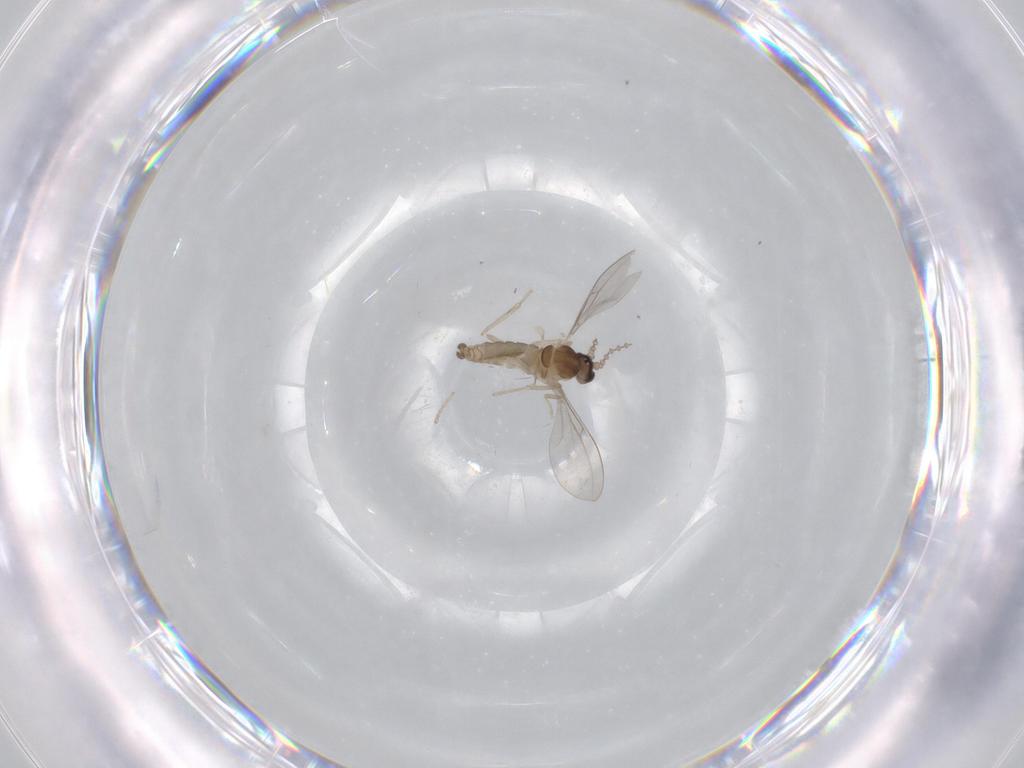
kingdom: Animalia
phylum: Arthropoda
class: Insecta
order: Diptera
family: Cecidomyiidae
